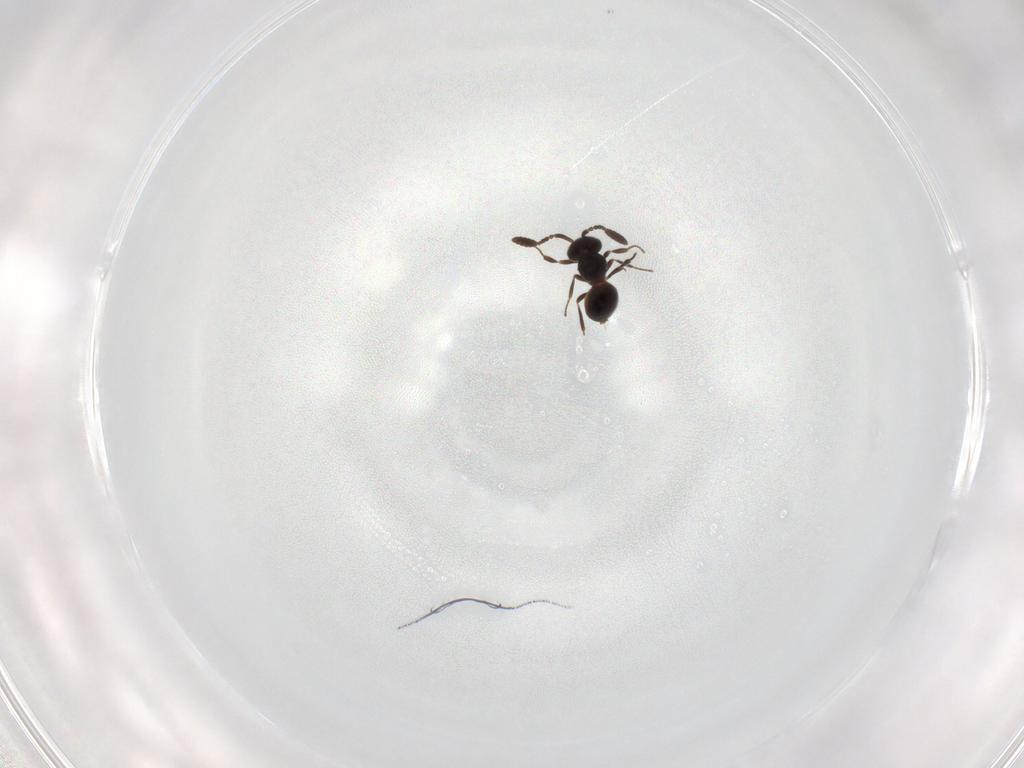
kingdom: Animalia
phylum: Arthropoda
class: Insecta
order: Hymenoptera
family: Scelionidae
